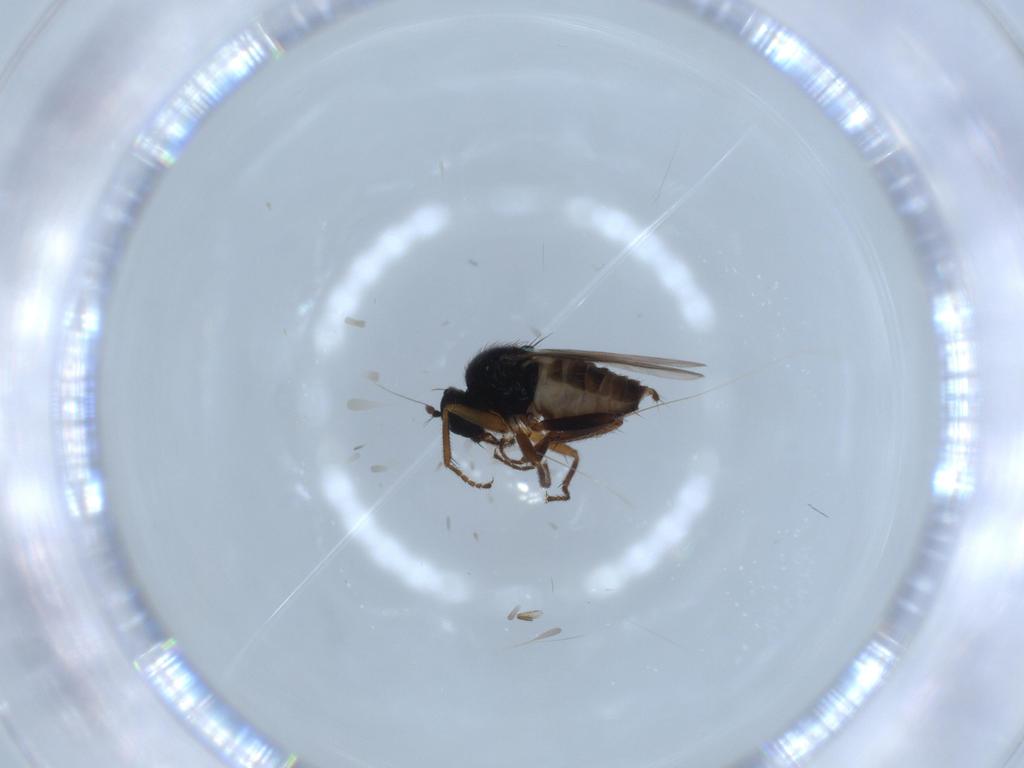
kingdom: Animalia
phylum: Arthropoda
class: Insecta
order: Diptera
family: Hybotidae
